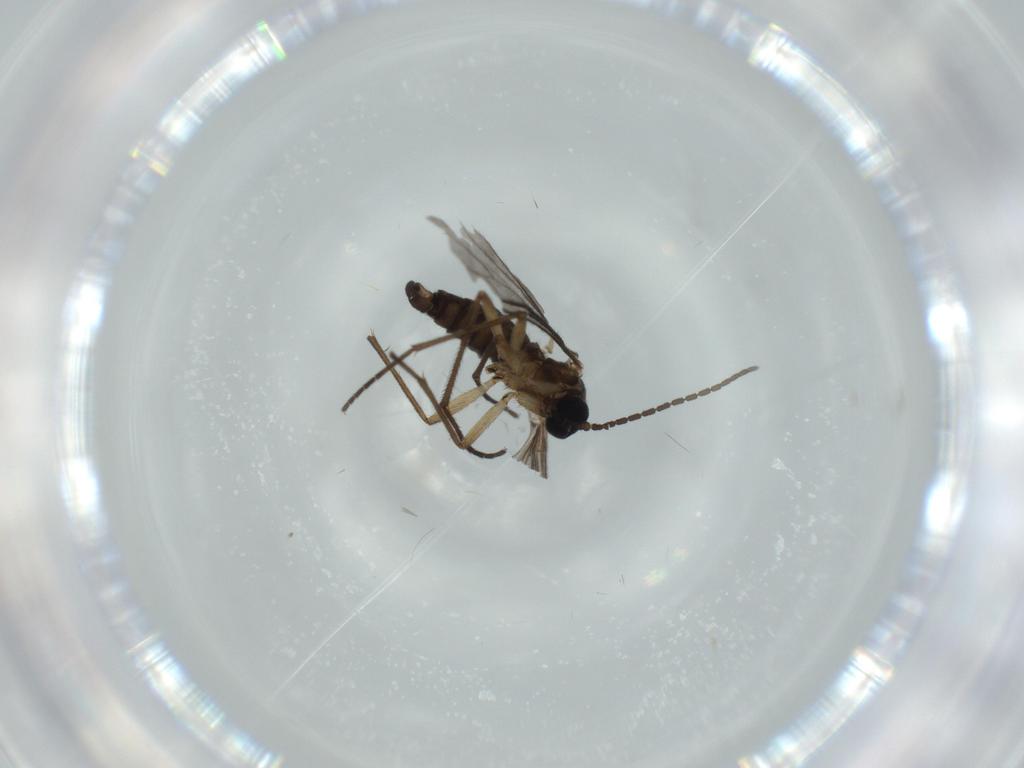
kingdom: Animalia
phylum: Arthropoda
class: Insecta
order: Diptera
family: Sciaridae
